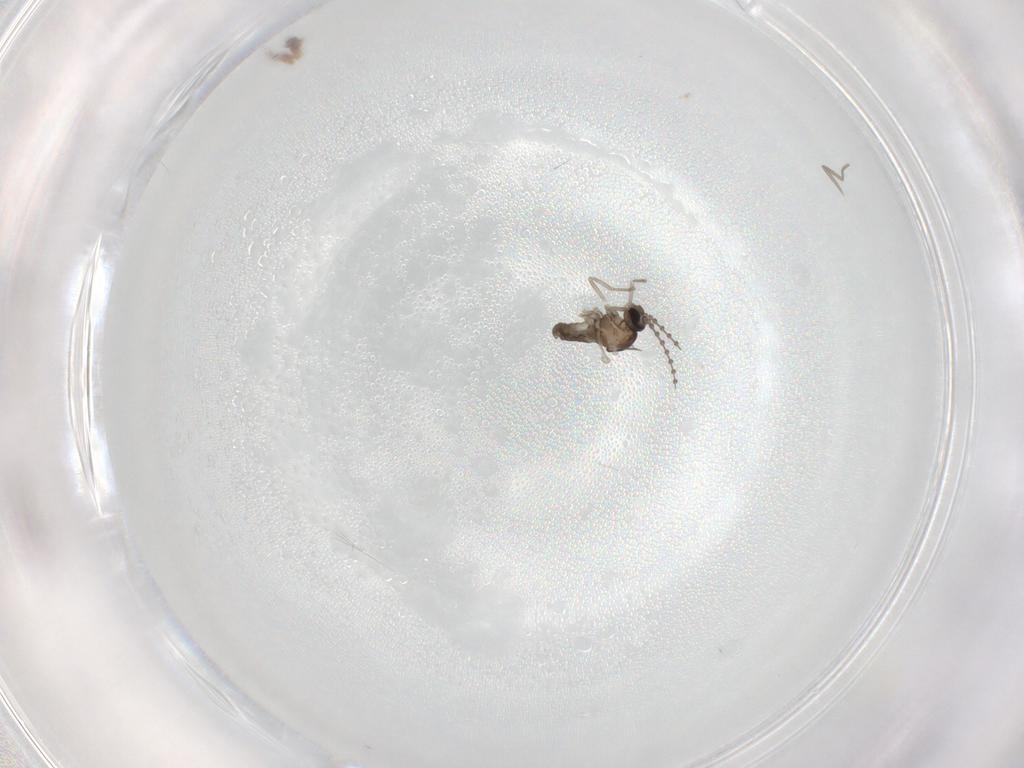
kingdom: Animalia
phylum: Arthropoda
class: Insecta
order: Diptera
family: Cecidomyiidae
